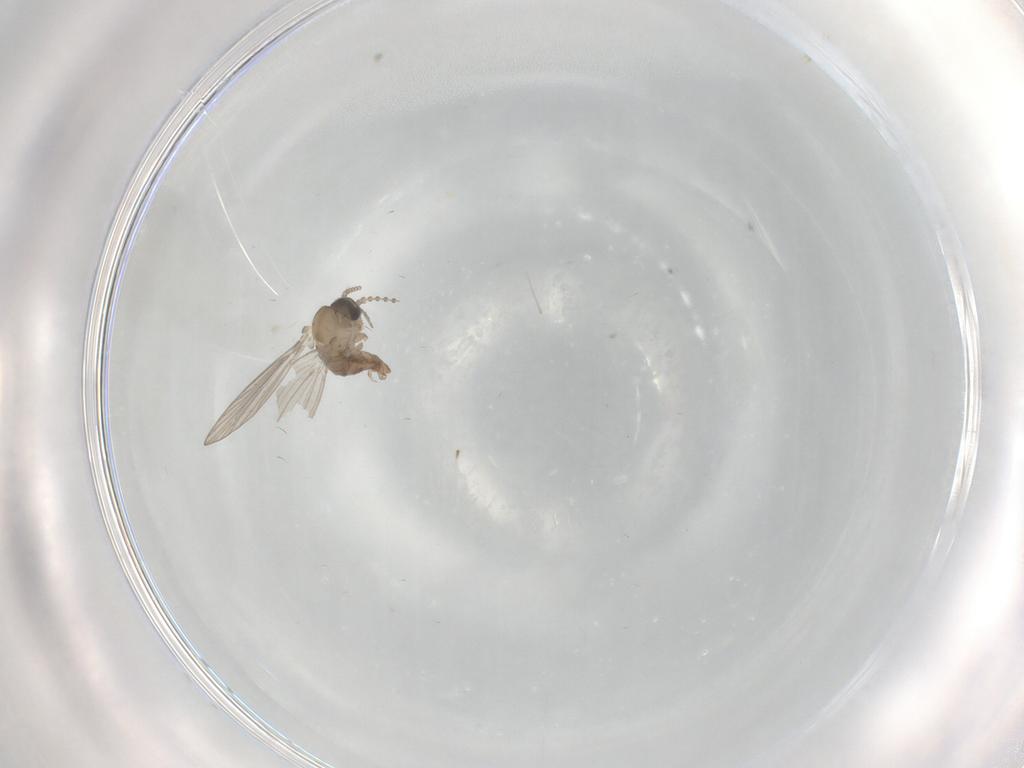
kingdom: Animalia
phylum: Arthropoda
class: Insecta
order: Diptera
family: Psychodidae
